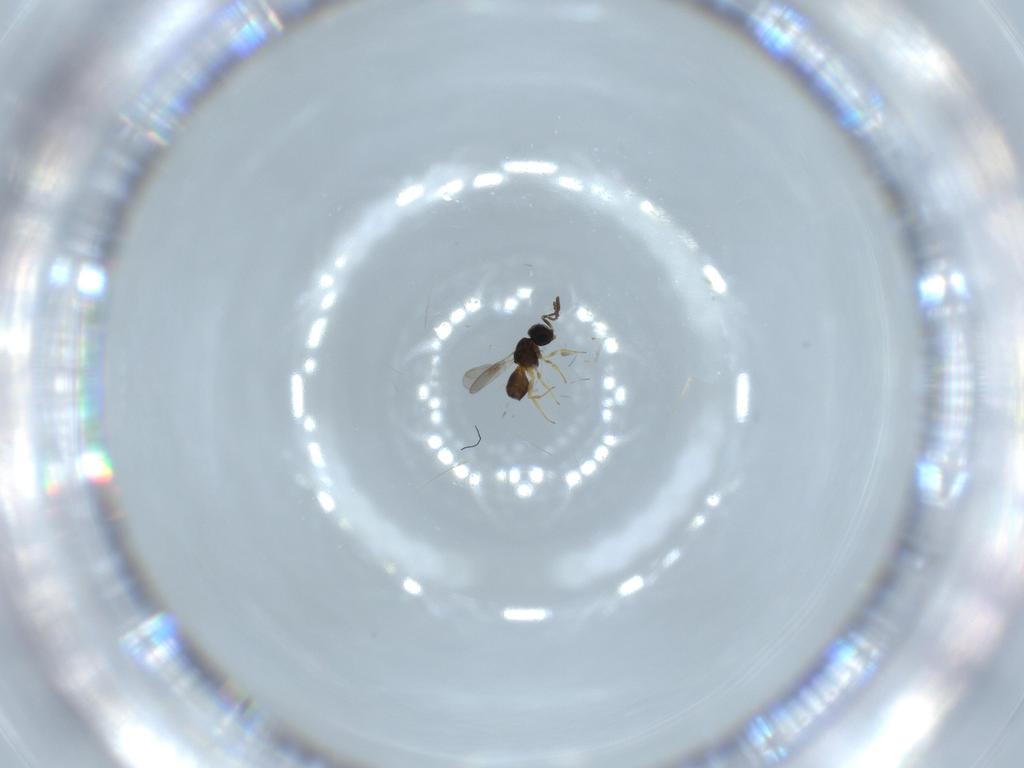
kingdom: Animalia
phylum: Arthropoda
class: Insecta
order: Hymenoptera
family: Scelionidae
